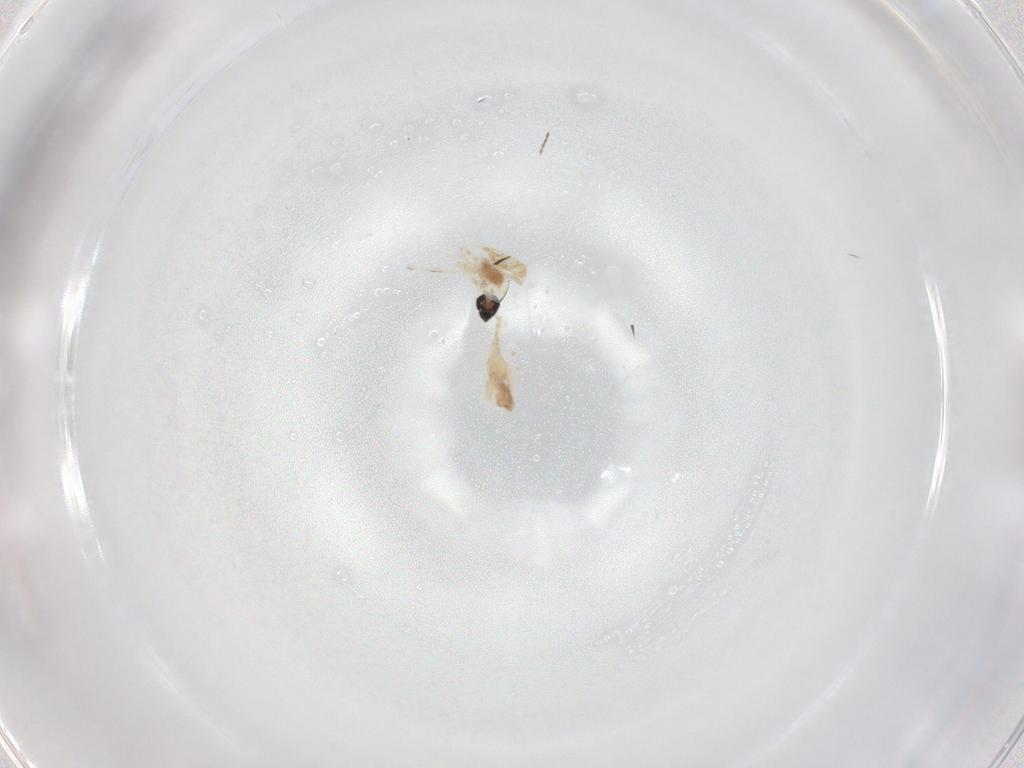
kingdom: Animalia
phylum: Arthropoda
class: Insecta
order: Diptera
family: Cecidomyiidae
